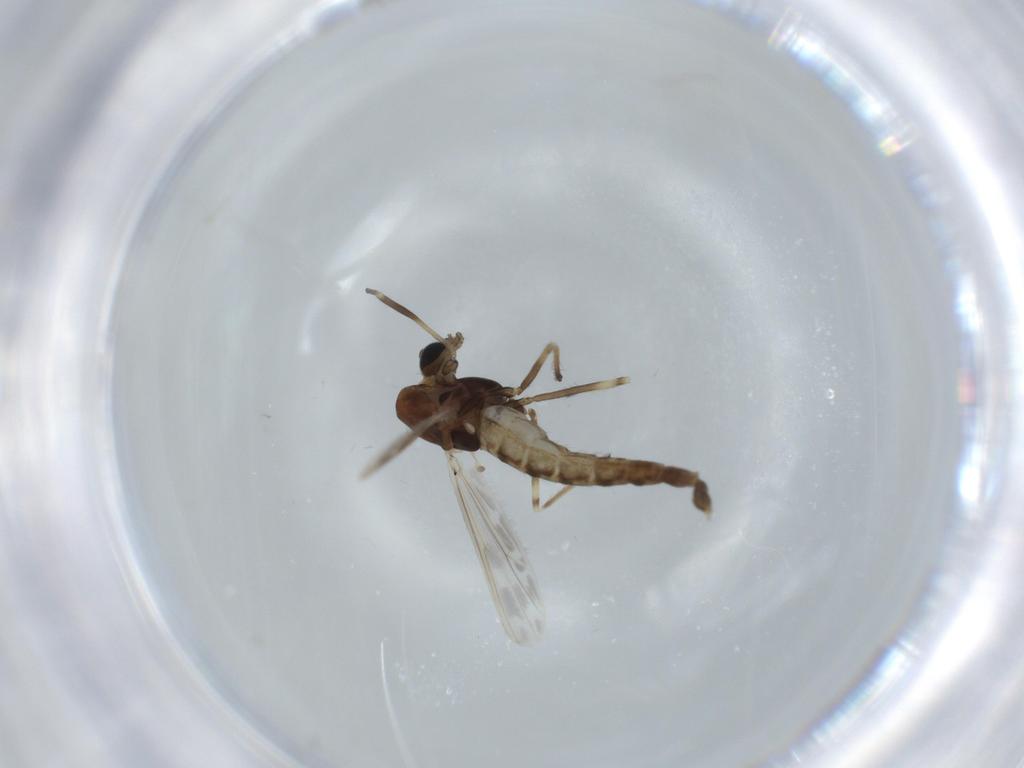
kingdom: Animalia
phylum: Arthropoda
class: Insecta
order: Diptera
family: Chironomidae
